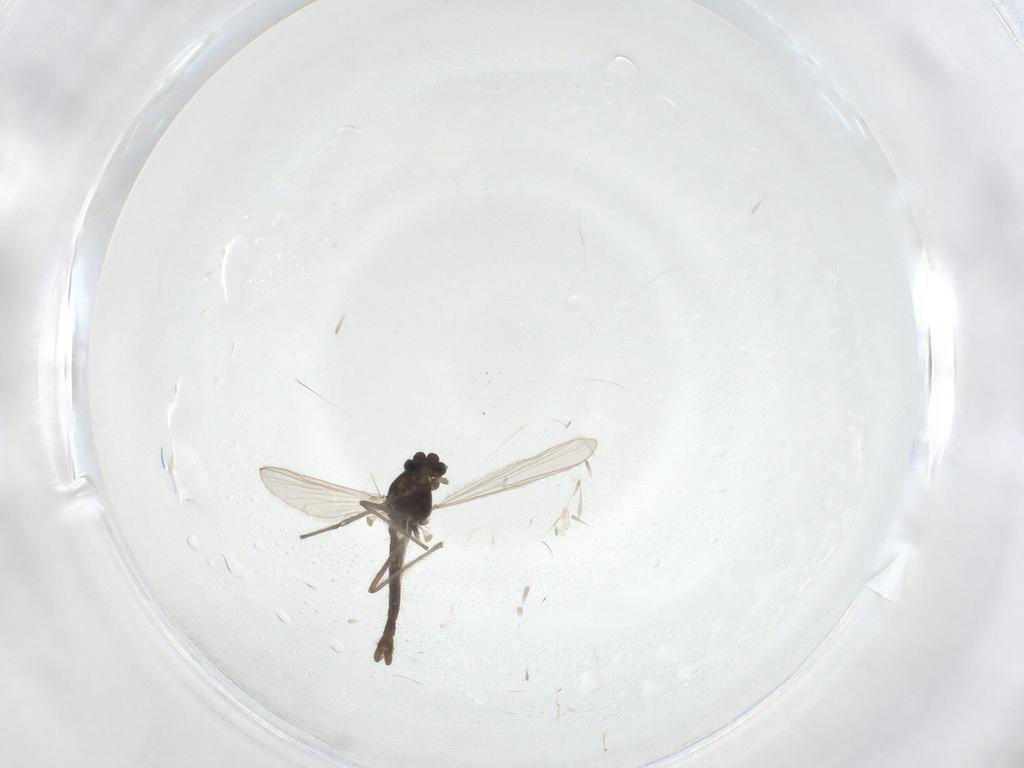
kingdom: Animalia
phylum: Arthropoda
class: Insecta
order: Diptera
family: Chironomidae
